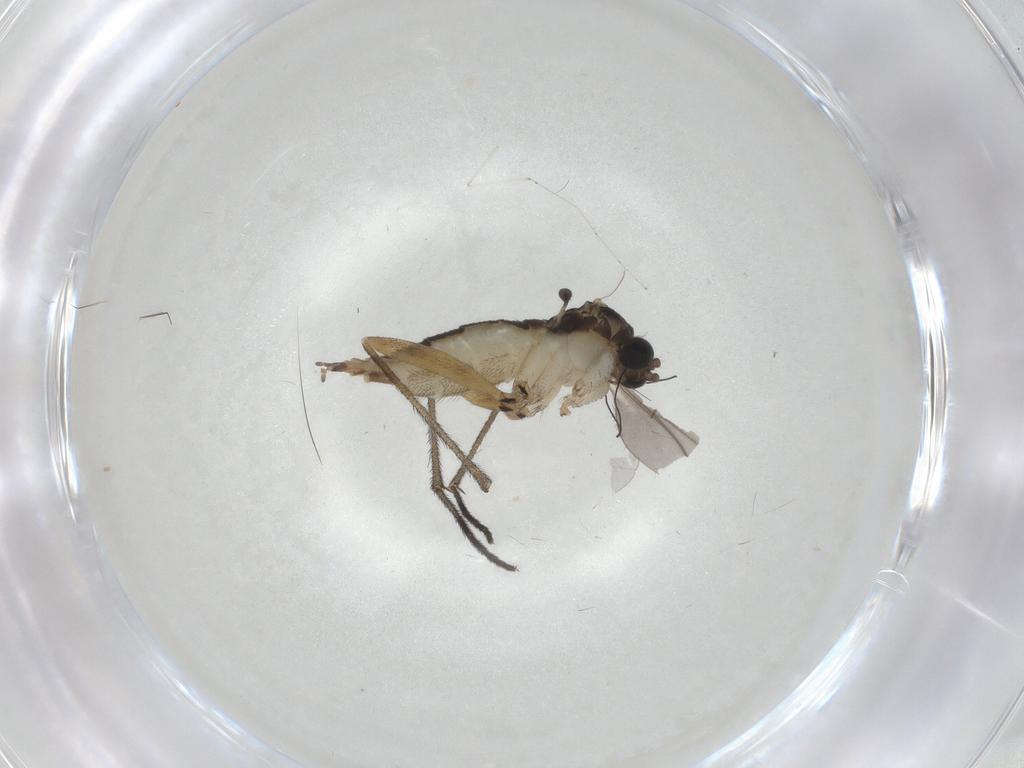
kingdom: Animalia
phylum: Arthropoda
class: Insecta
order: Diptera
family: Sciaridae
